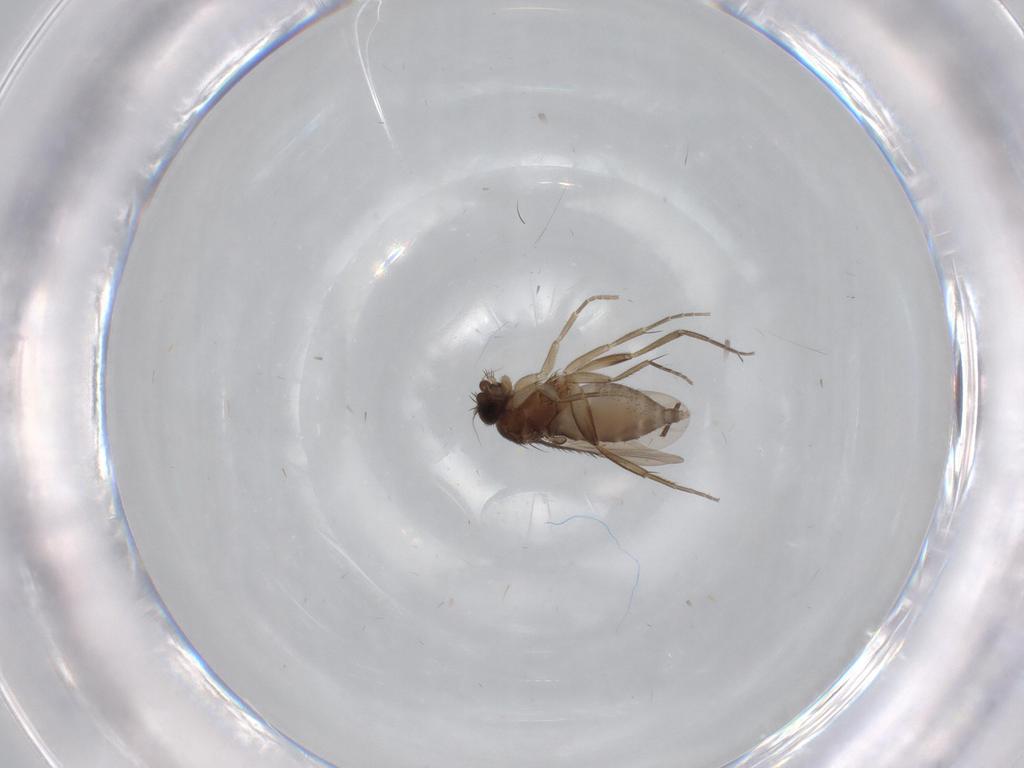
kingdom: Animalia
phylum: Arthropoda
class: Insecta
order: Diptera
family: Phoridae
